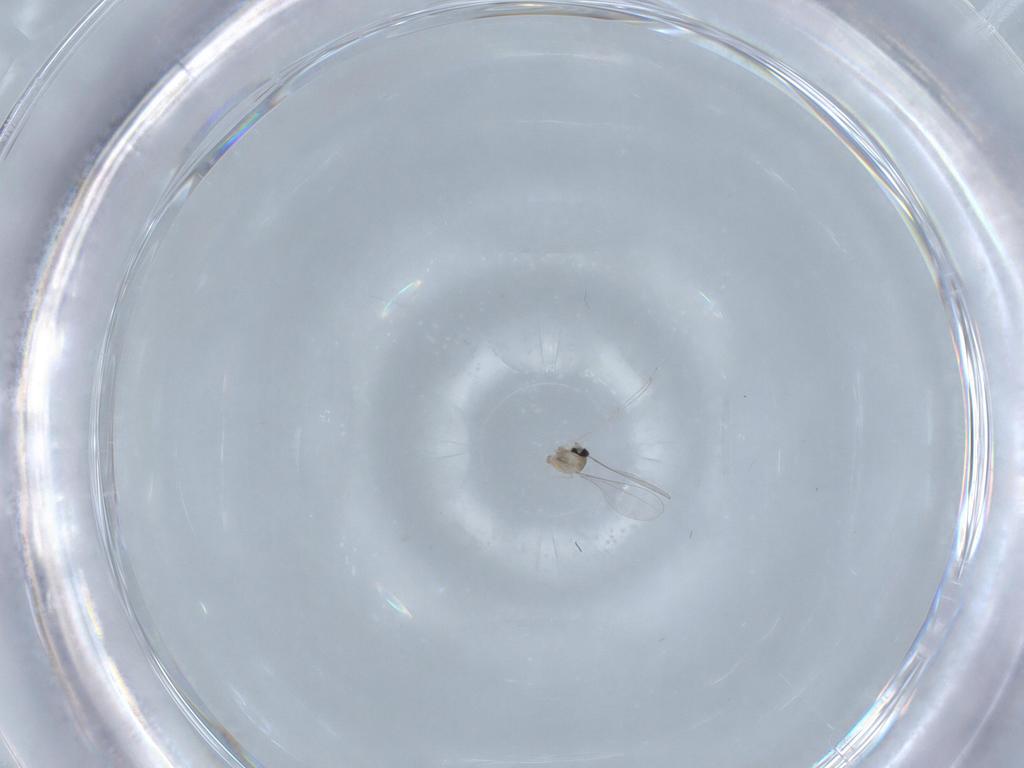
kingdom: Animalia
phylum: Arthropoda
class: Insecta
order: Diptera
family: Cecidomyiidae
